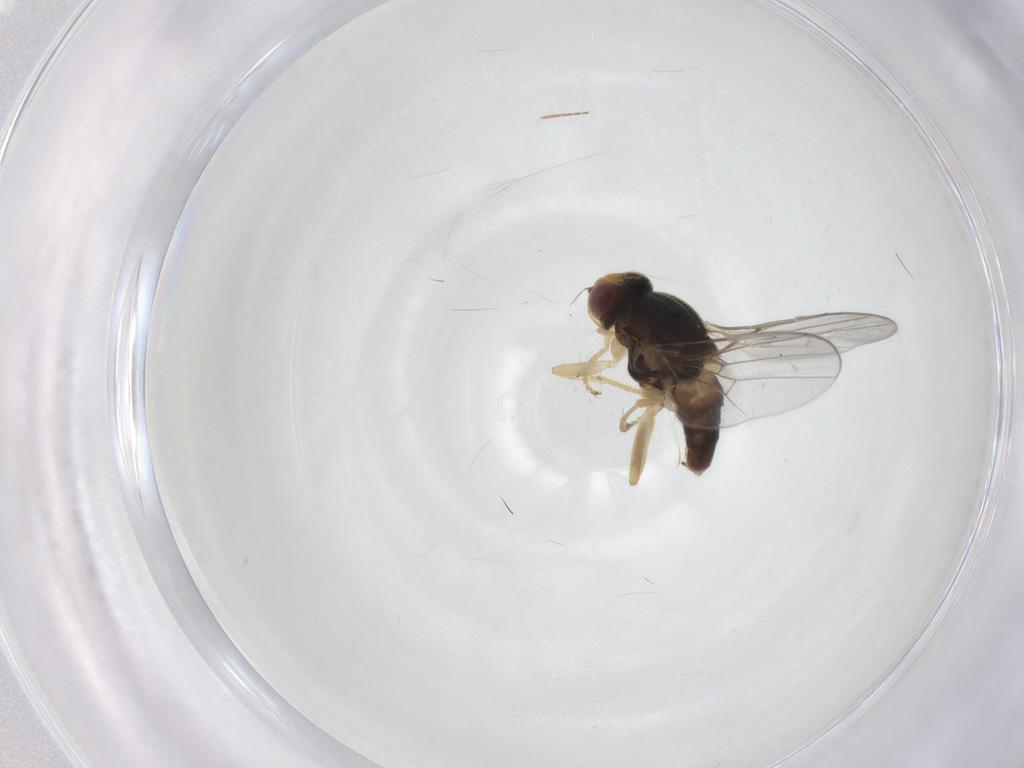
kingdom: Animalia
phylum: Arthropoda
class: Insecta
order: Diptera
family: Chloropidae
